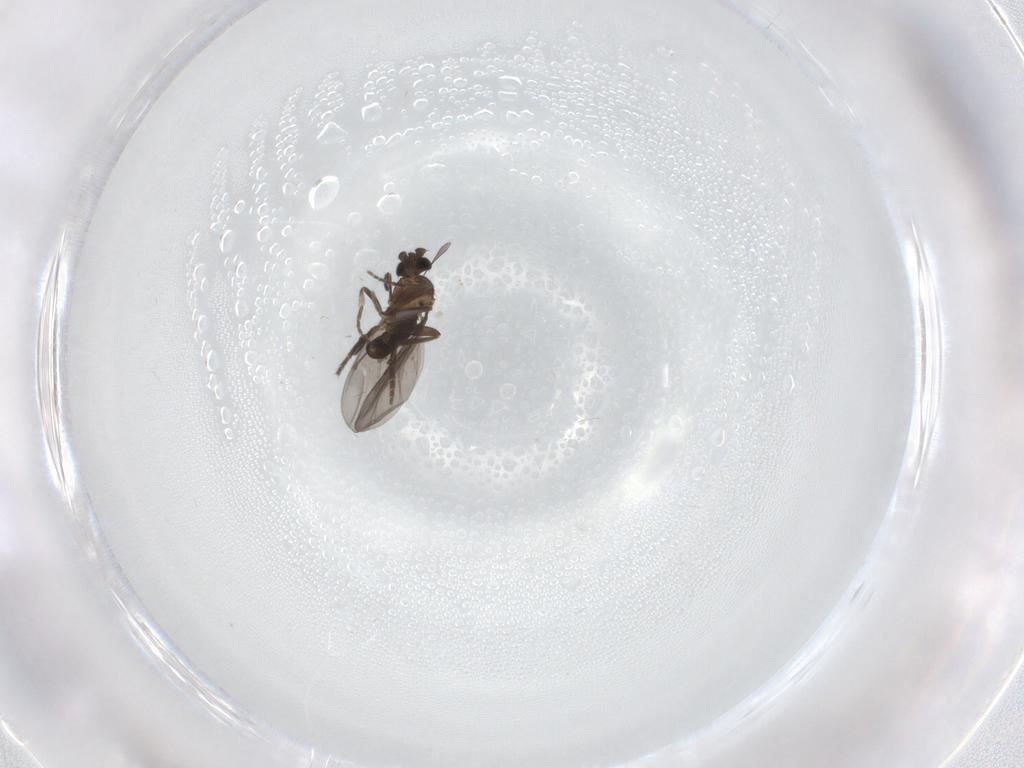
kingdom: Animalia
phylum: Arthropoda
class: Insecta
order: Diptera
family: Phoridae
